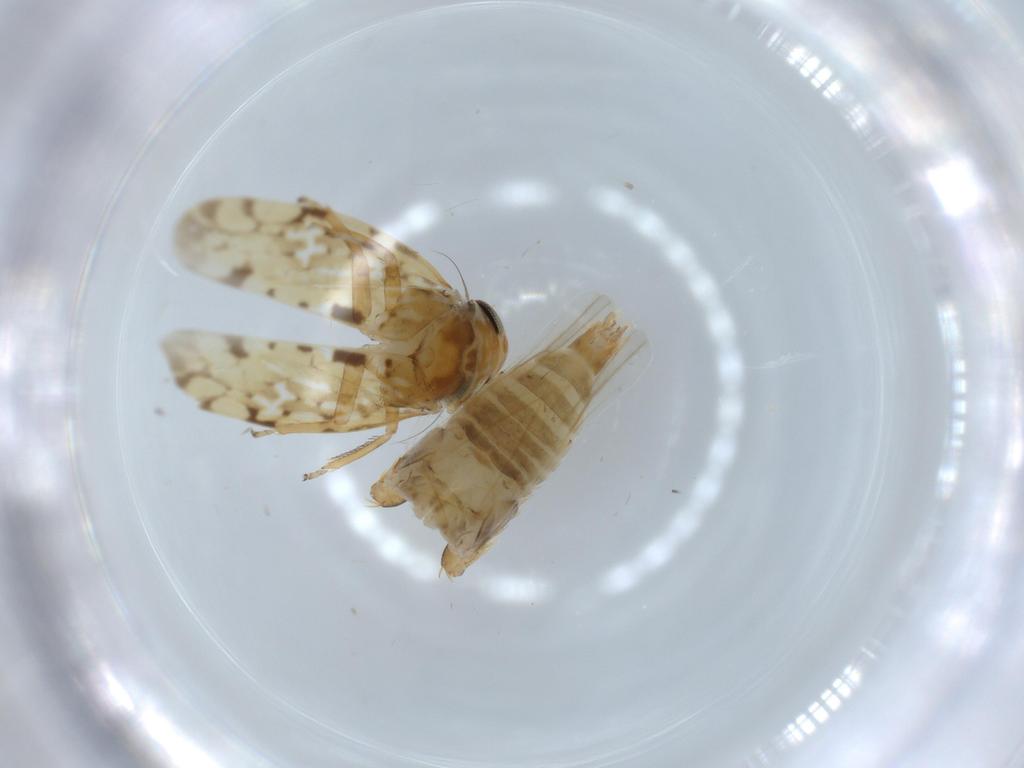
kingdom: Animalia
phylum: Arthropoda
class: Insecta
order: Hemiptera
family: Cicadellidae
